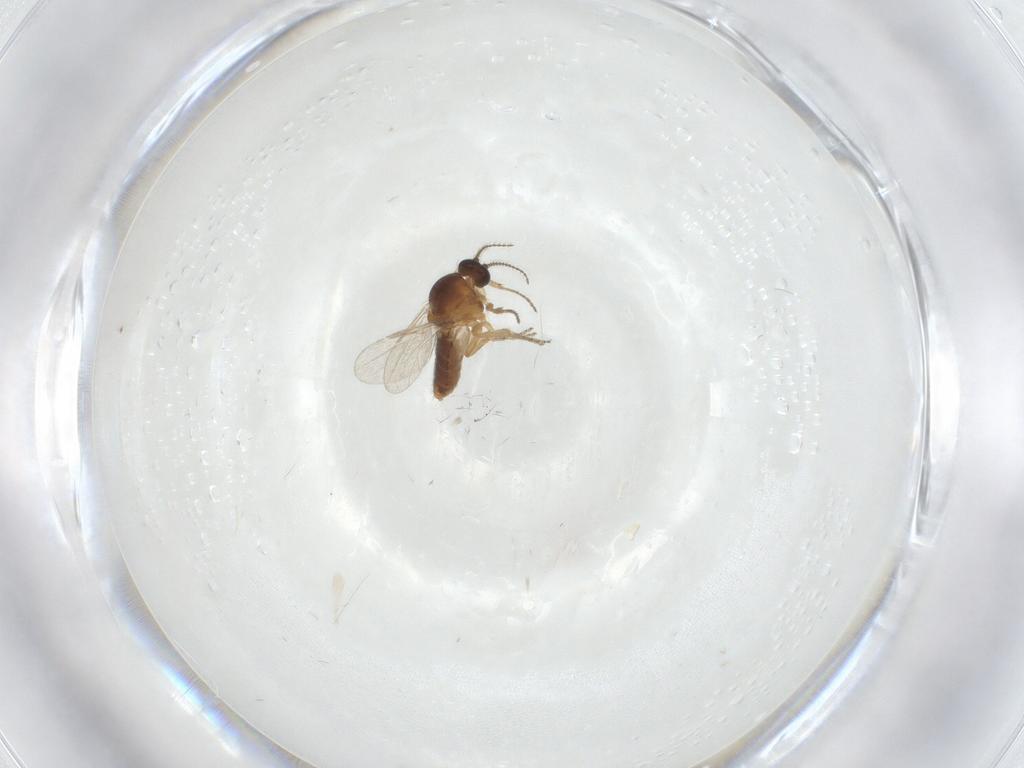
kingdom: Animalia
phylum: Arthropoda
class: Insecta
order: Diptera
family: Ceratopogonidae
